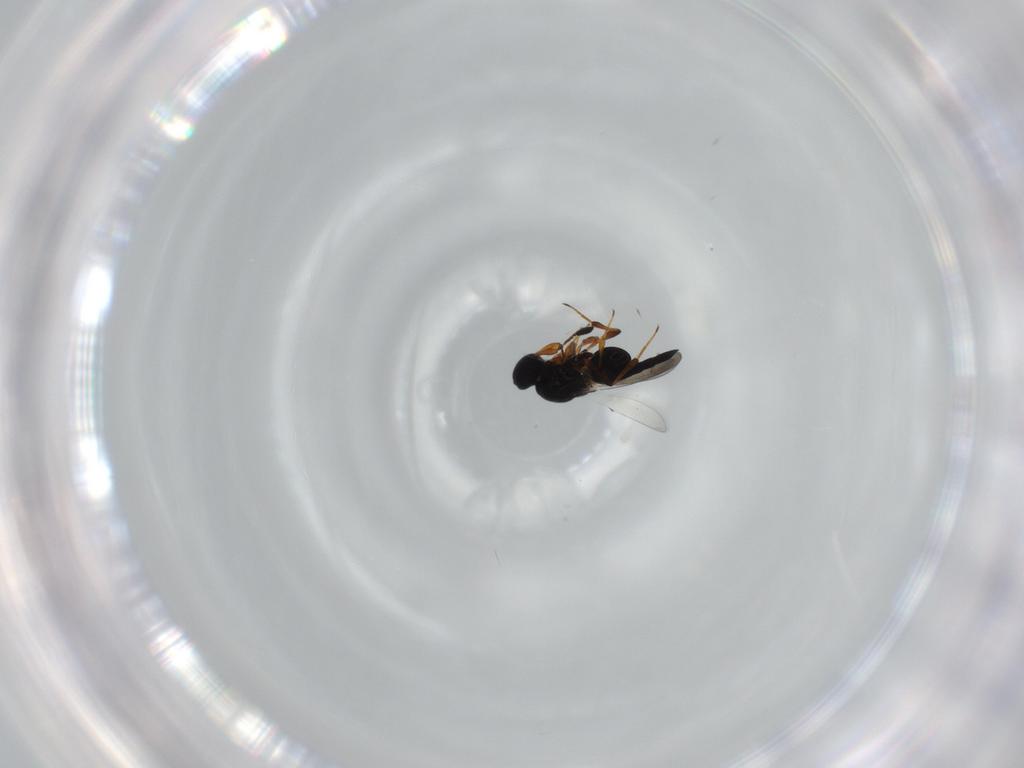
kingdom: Animalia
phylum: Arthropoda
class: Insecta
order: Hymenoptera
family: Platygastridae
